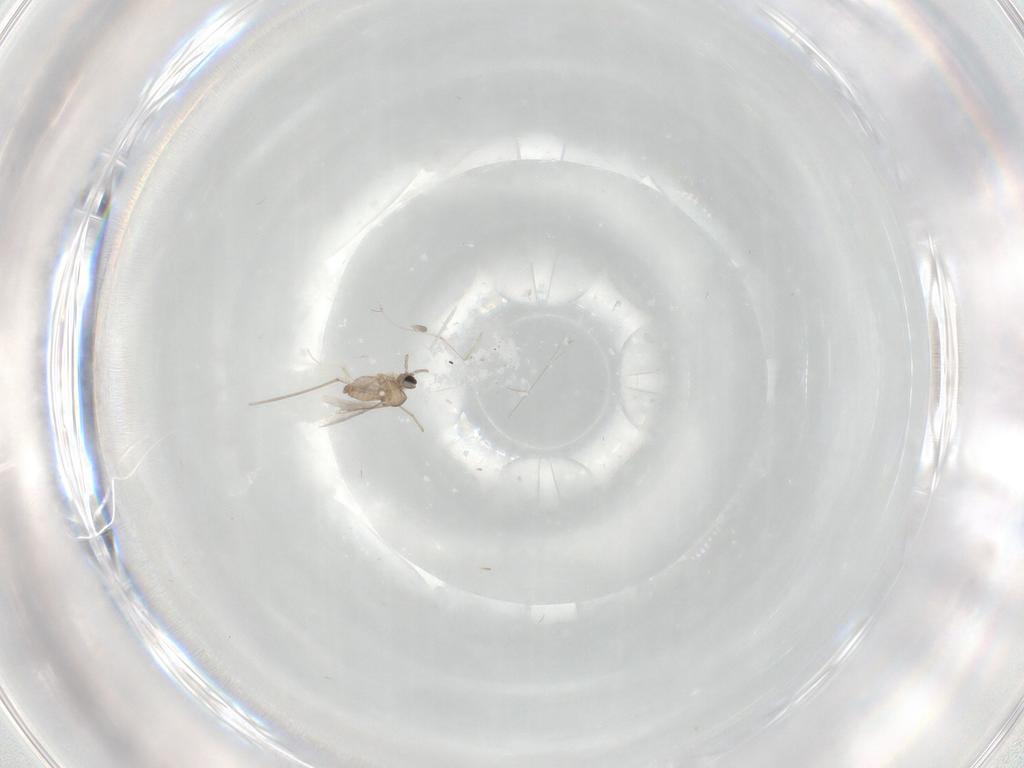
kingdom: Animalia
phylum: Arthropoda
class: Insecta
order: Diptera
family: Cecidomyiidae
